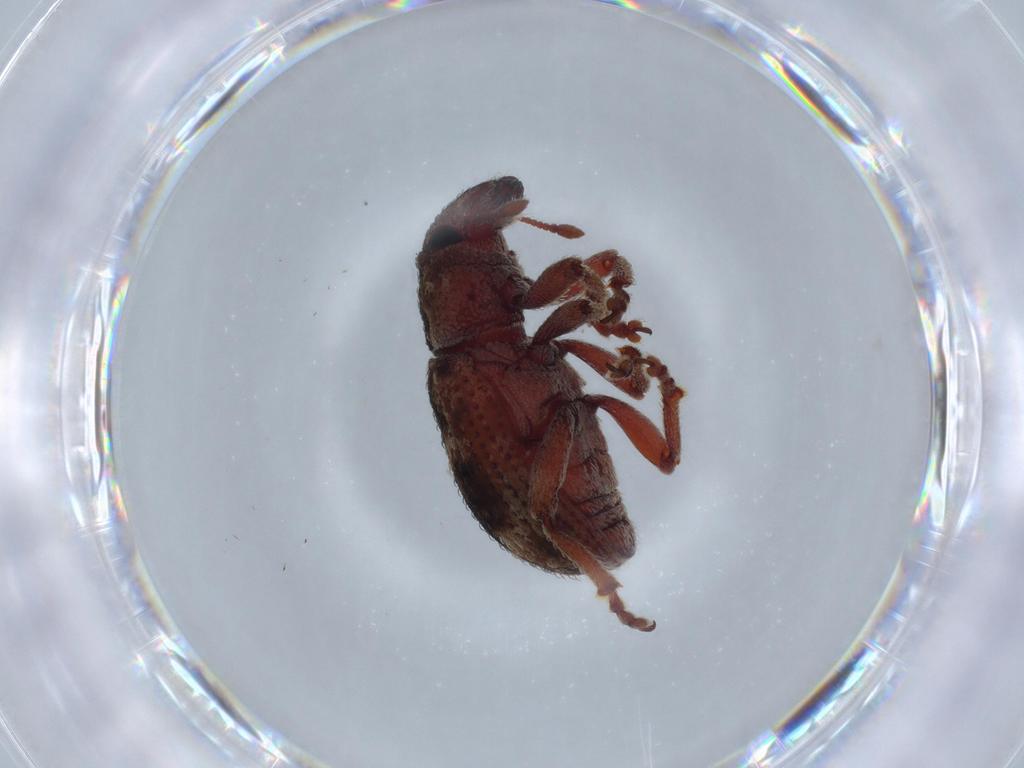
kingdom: Animalia
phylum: Arthropoda
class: Insecta
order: Coleoptera
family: Curculionidae
